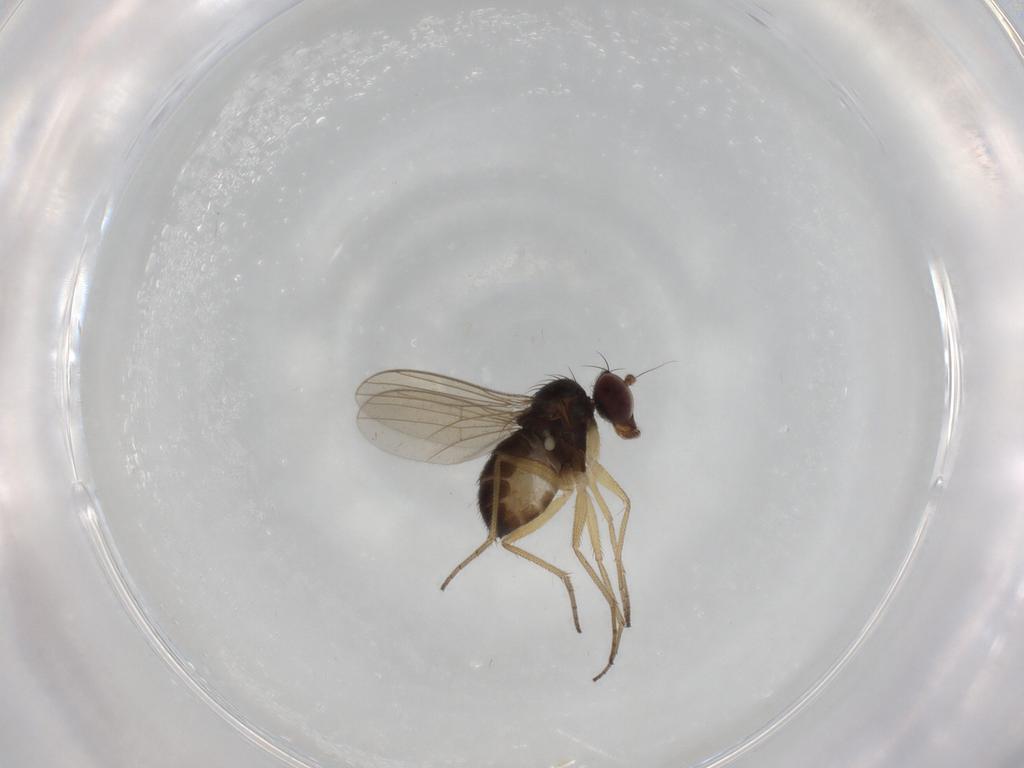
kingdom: Animalia
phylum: Arthropoda
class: Insecta
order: Diptera
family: Dolichopodidae
